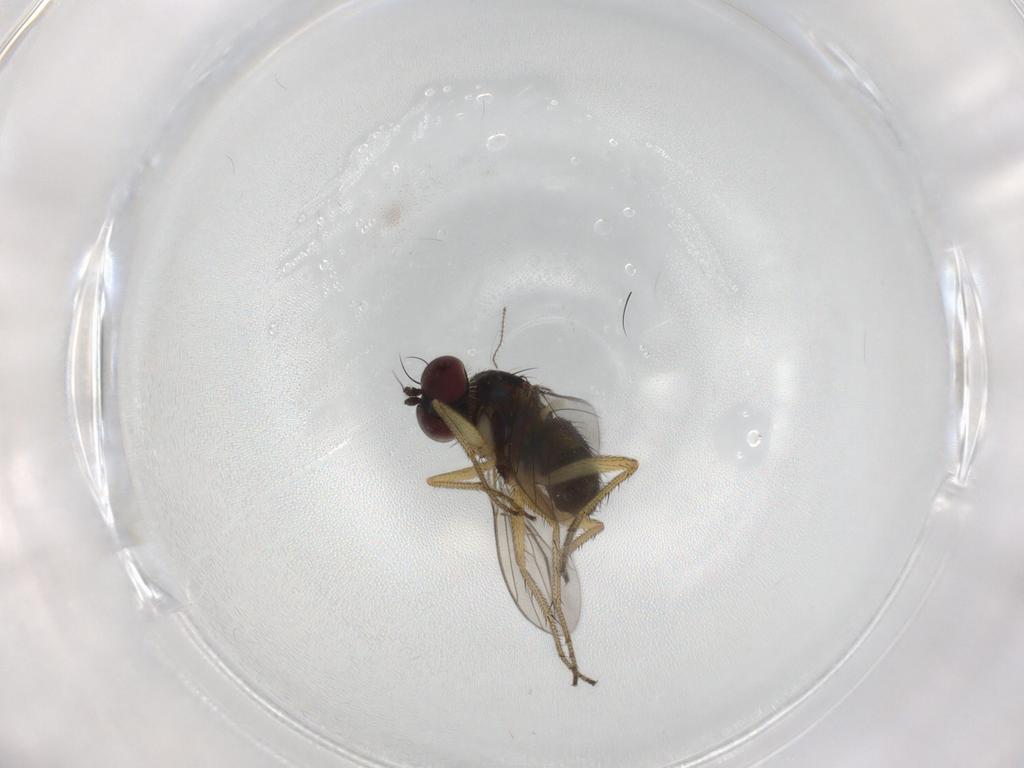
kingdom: Animalia
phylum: Arthropoda
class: Insecta
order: Diptera
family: Dolichopodidae
